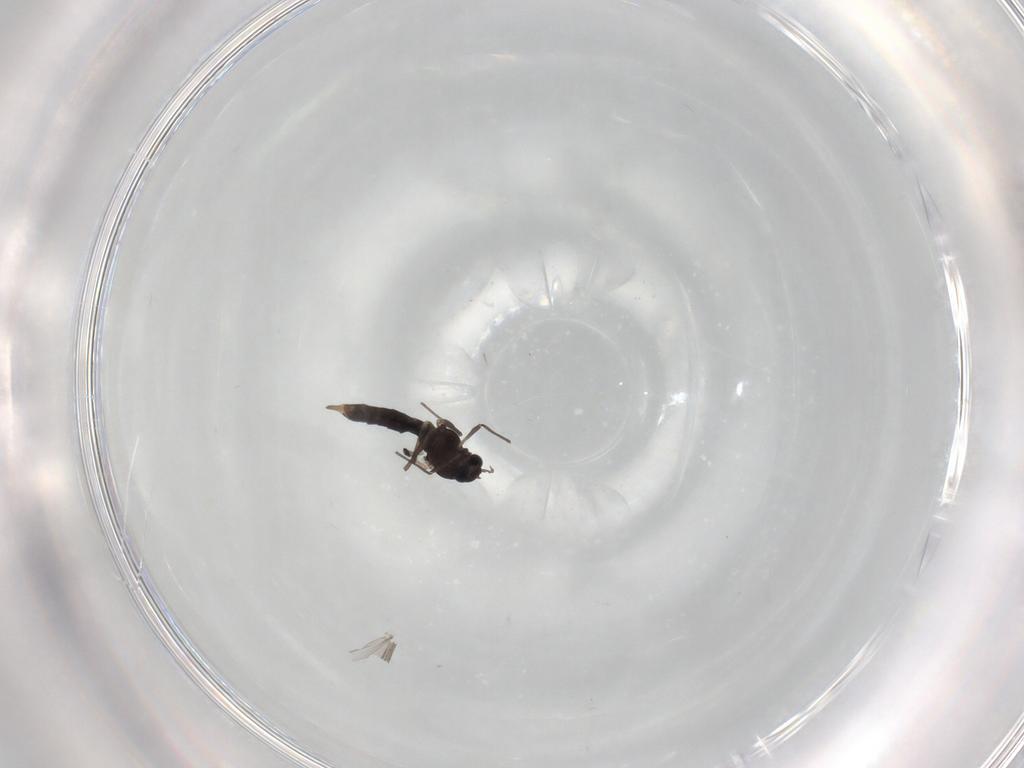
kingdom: Animalia
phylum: Arthropoda
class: Insecta
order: Diptera
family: Chironomidae
